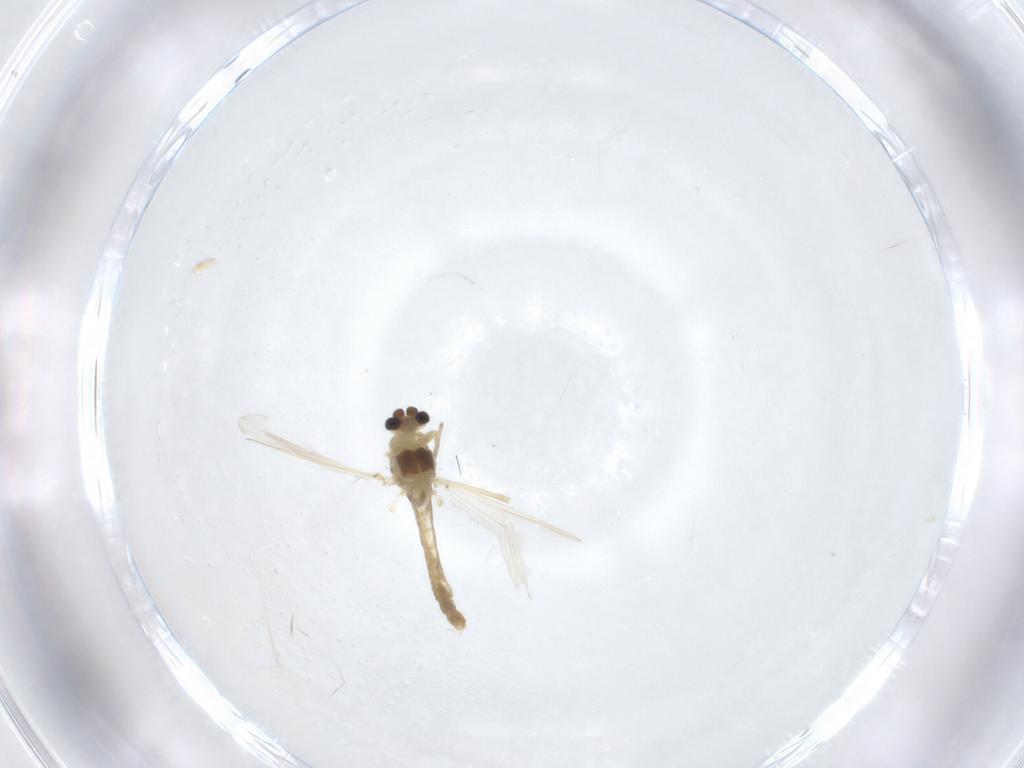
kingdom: Animalia
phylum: Arthropoda
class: Insecta
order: Diptera
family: Chironomidae
